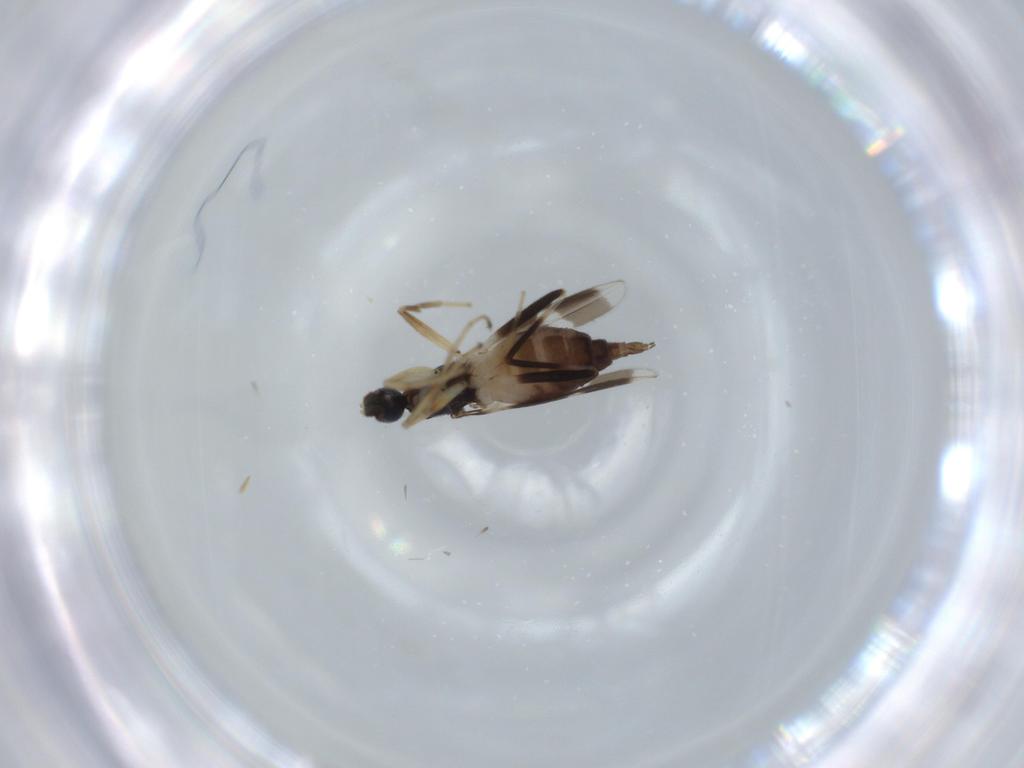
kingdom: Animalia
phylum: Arthropoda
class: Insecta
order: Diptera
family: Hybotidae
